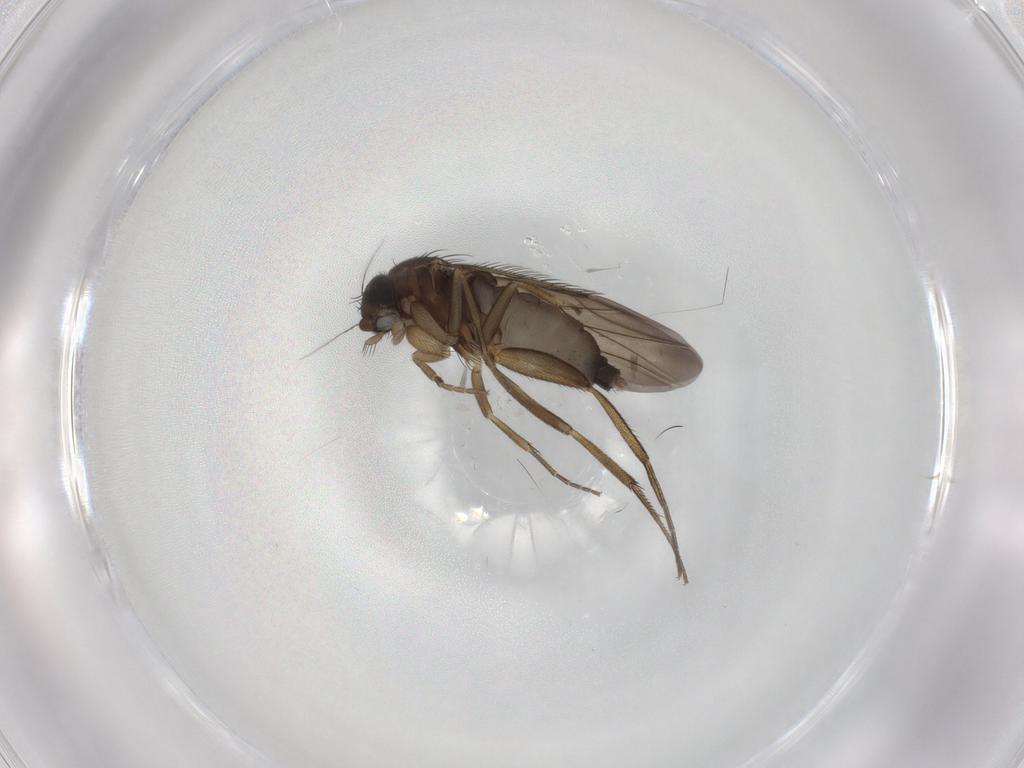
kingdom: Animalia
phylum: Arthropoda
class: Insecta
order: Diptera
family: Phoridae
